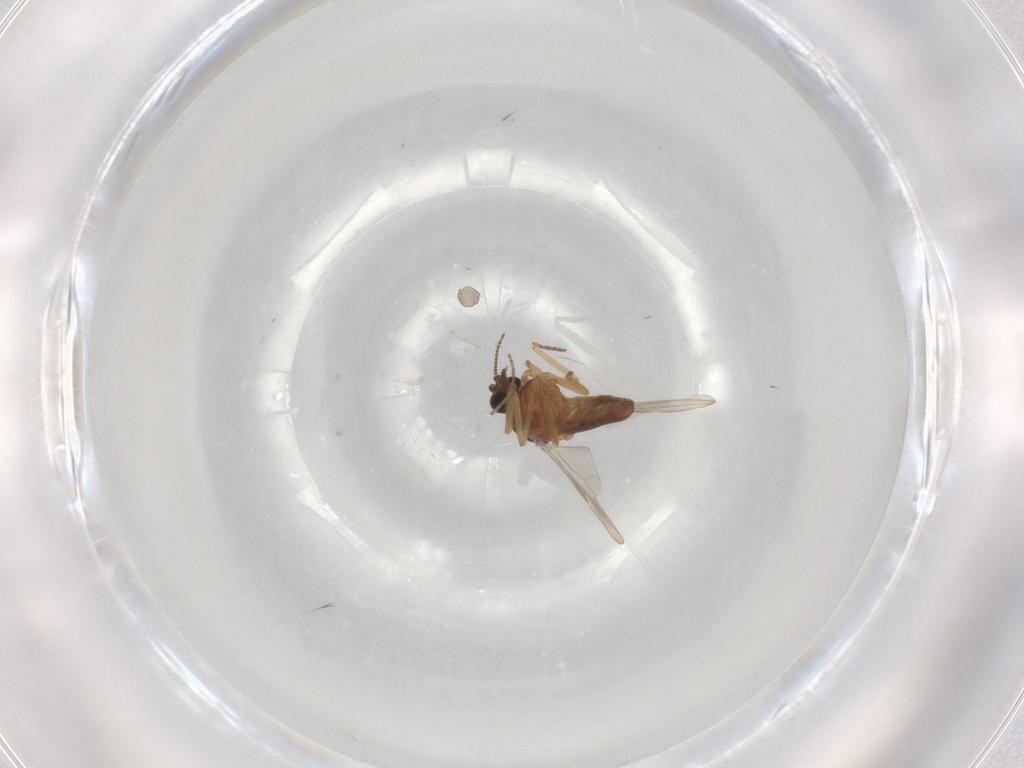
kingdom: Animalia
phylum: Arthropoda
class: Insecta
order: Diptera
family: Ceratopogonidae
